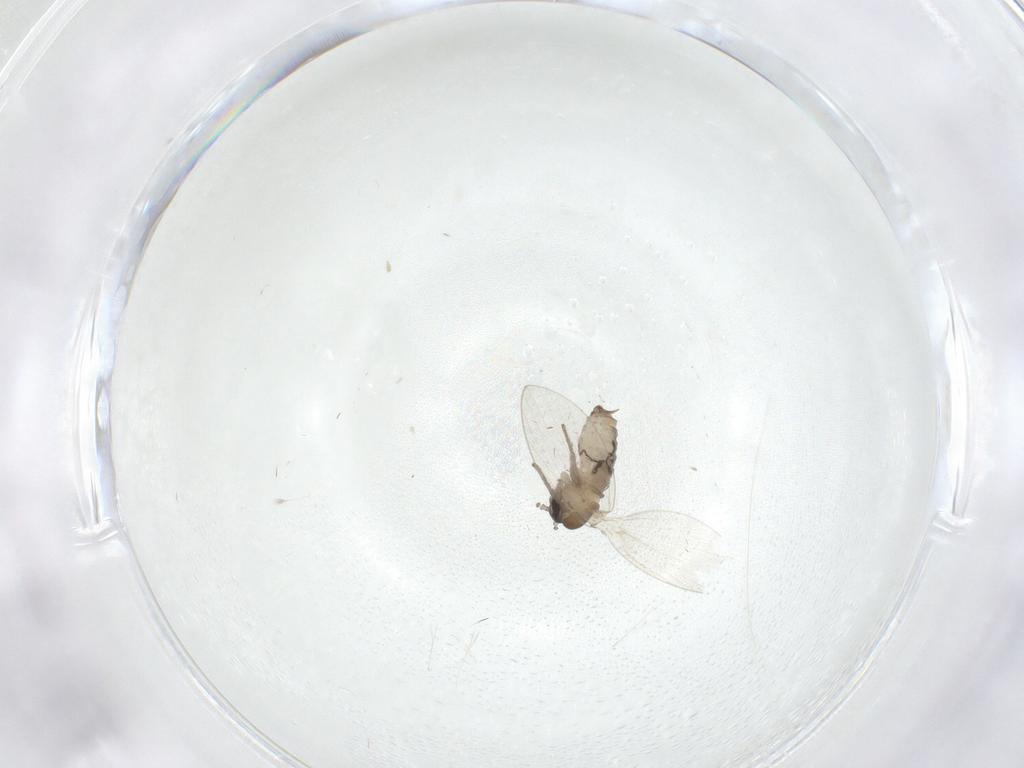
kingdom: Animalia
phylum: Arthropoda
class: Insecta
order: Diptera
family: Psychodidae
